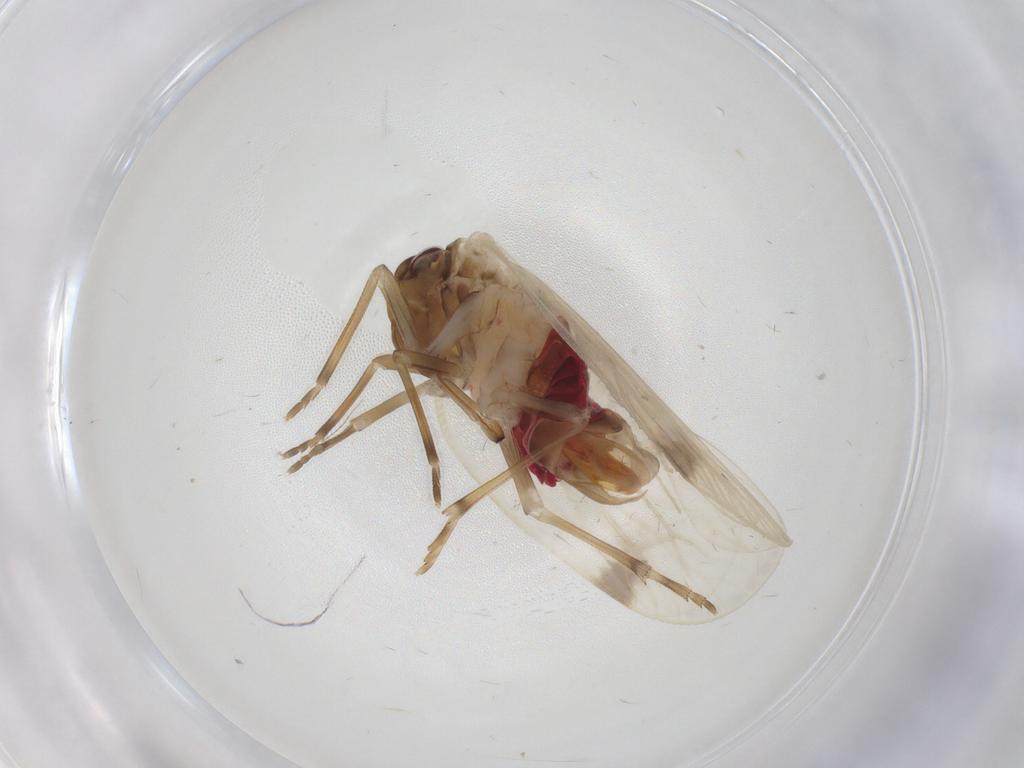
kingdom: Animalia
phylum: Arthropoda
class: Insecta
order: Hemiptera
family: Achilidae
